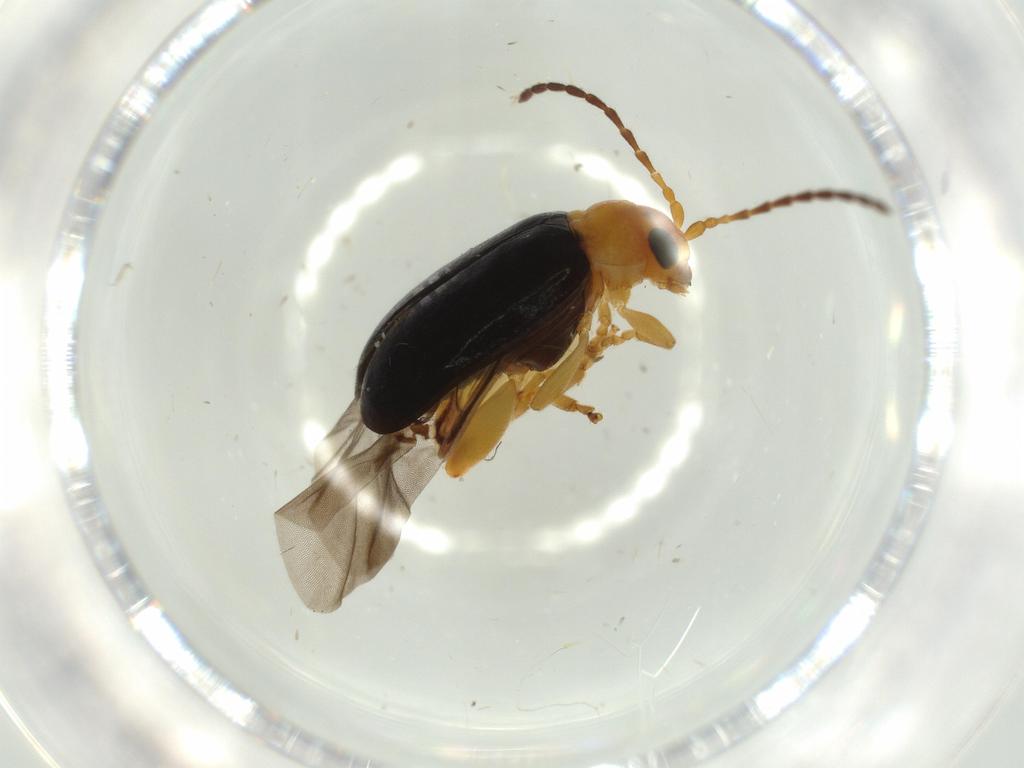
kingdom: Animalia
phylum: Arthropoda
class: Insecta
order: Coleoptera
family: Chrysomelidae
